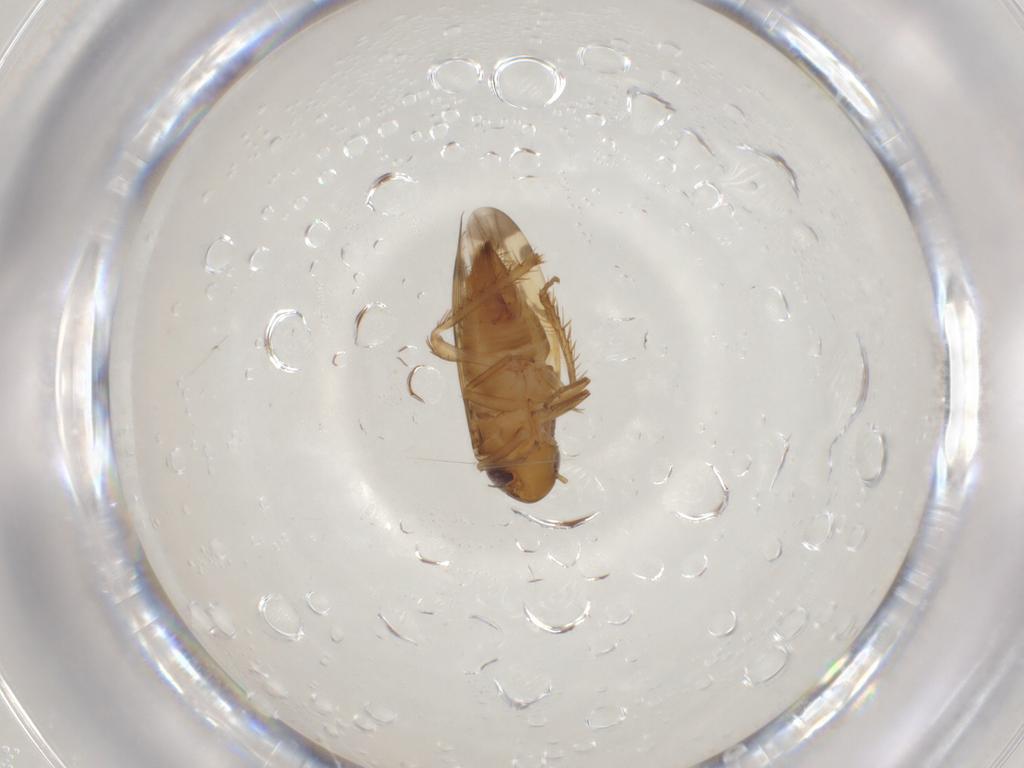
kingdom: Animalia
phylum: Arthropoda
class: Insecta
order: Hemiptera
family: Cicadellidae
